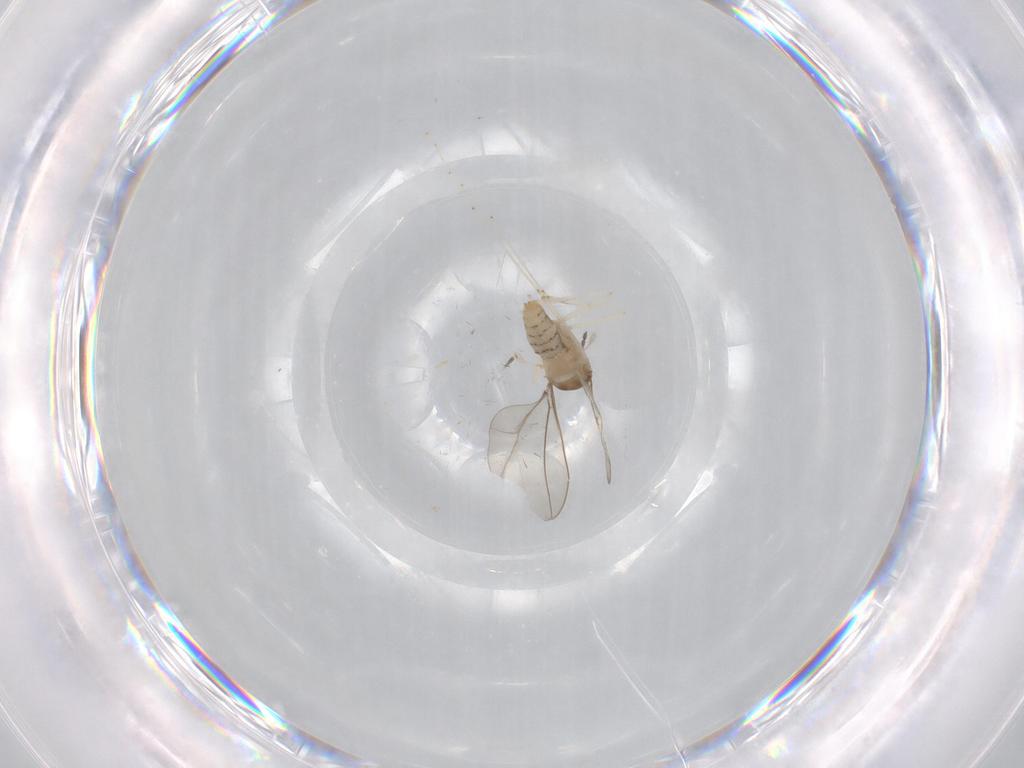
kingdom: Animalia
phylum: Arthropoda
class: Insecta
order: Diptera
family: Cecidomyiidae
